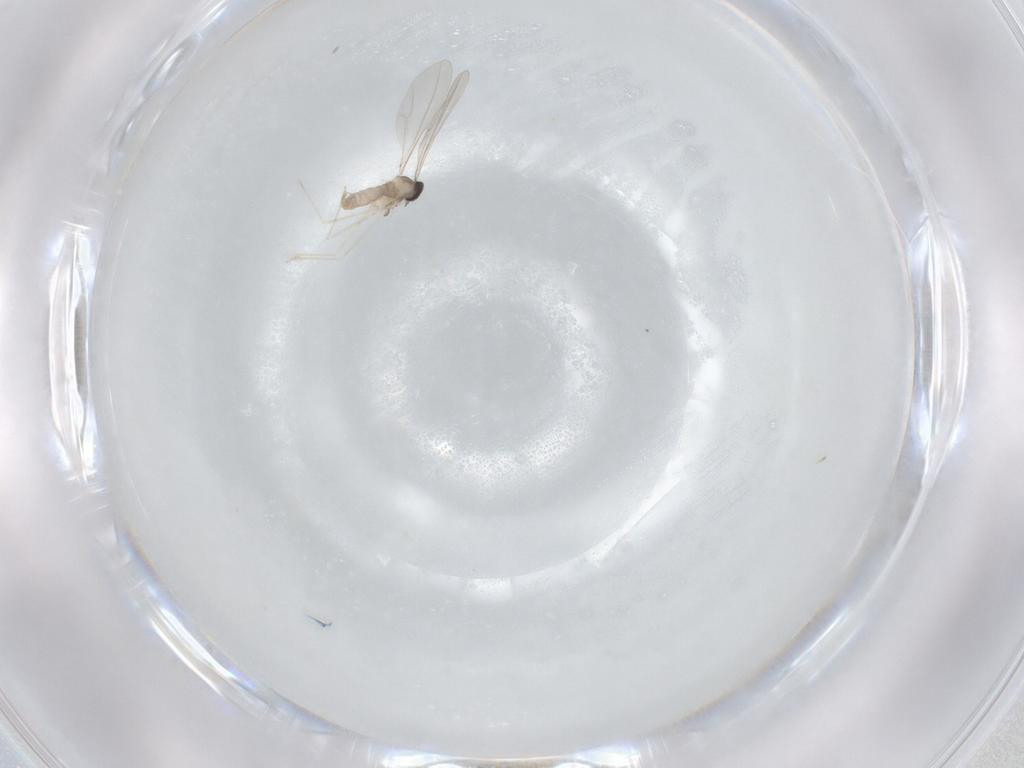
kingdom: Animalia
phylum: Arthropoda
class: Insecta
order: Diptera
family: Cecidomyiidae
